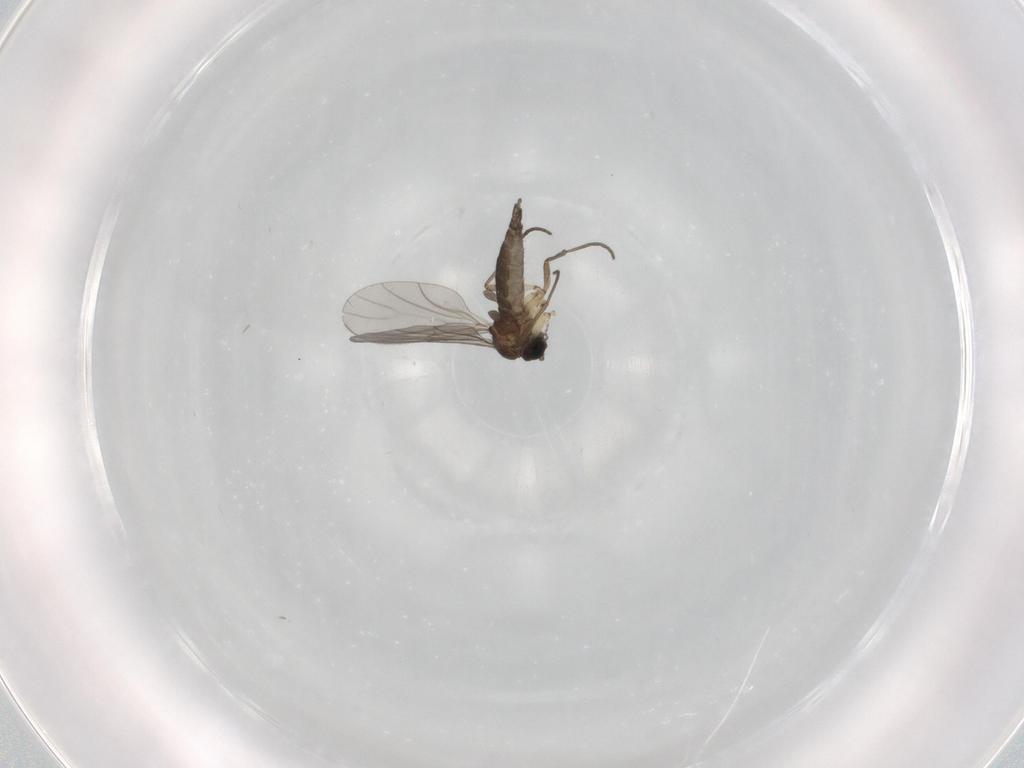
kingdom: Animalia
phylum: Arthropoda
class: Insecta
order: Diptera
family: Sciaridae
